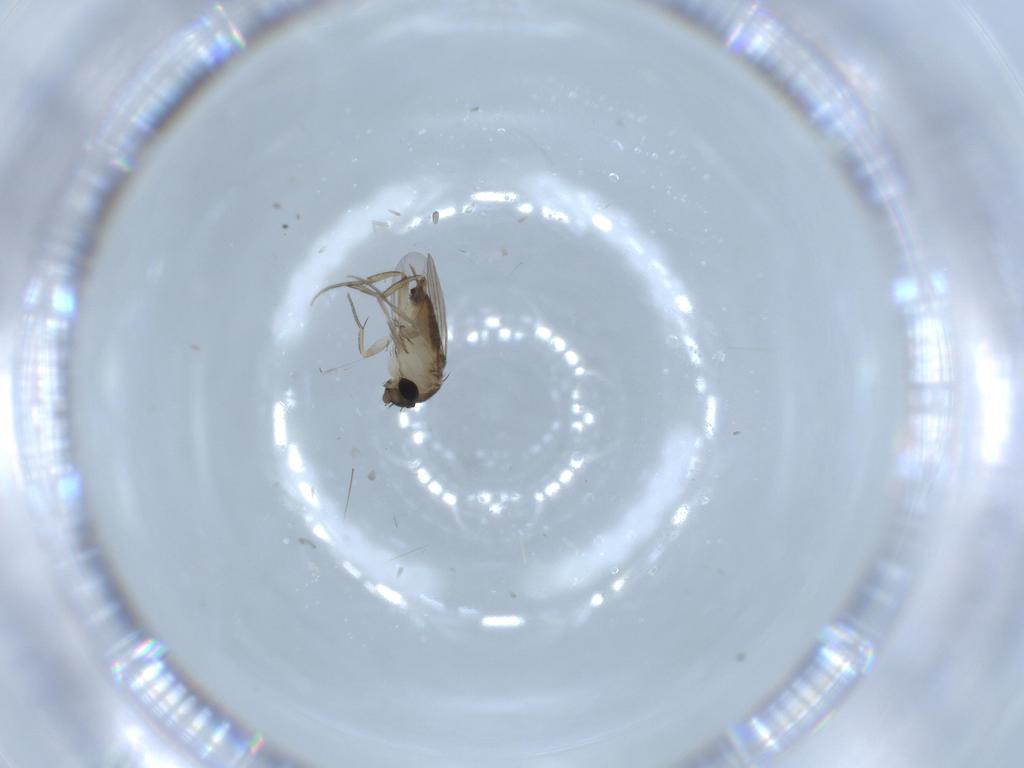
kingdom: Animalia
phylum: Arthropoda
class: Insecta
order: Diptera
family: Phoridae
